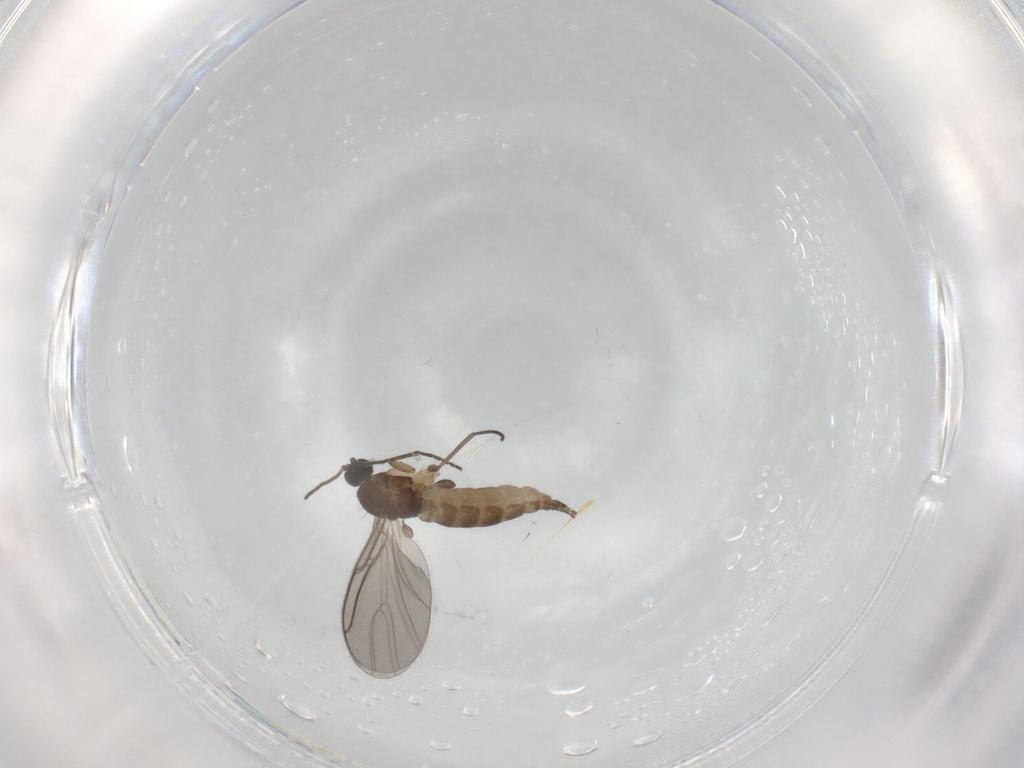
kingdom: Animalia
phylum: Arthropoda
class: Insecta
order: Diptera
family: Sciaridae
